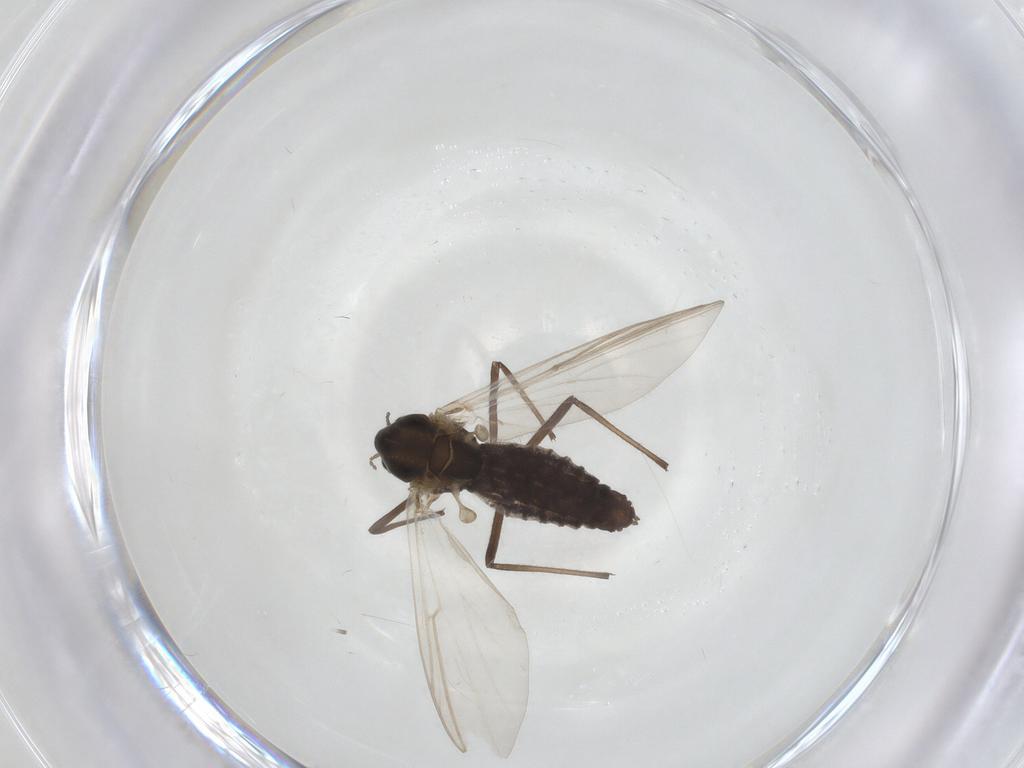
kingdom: Animalia
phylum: Arthropoda
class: Insecta
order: Diptera
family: Chironomidae
